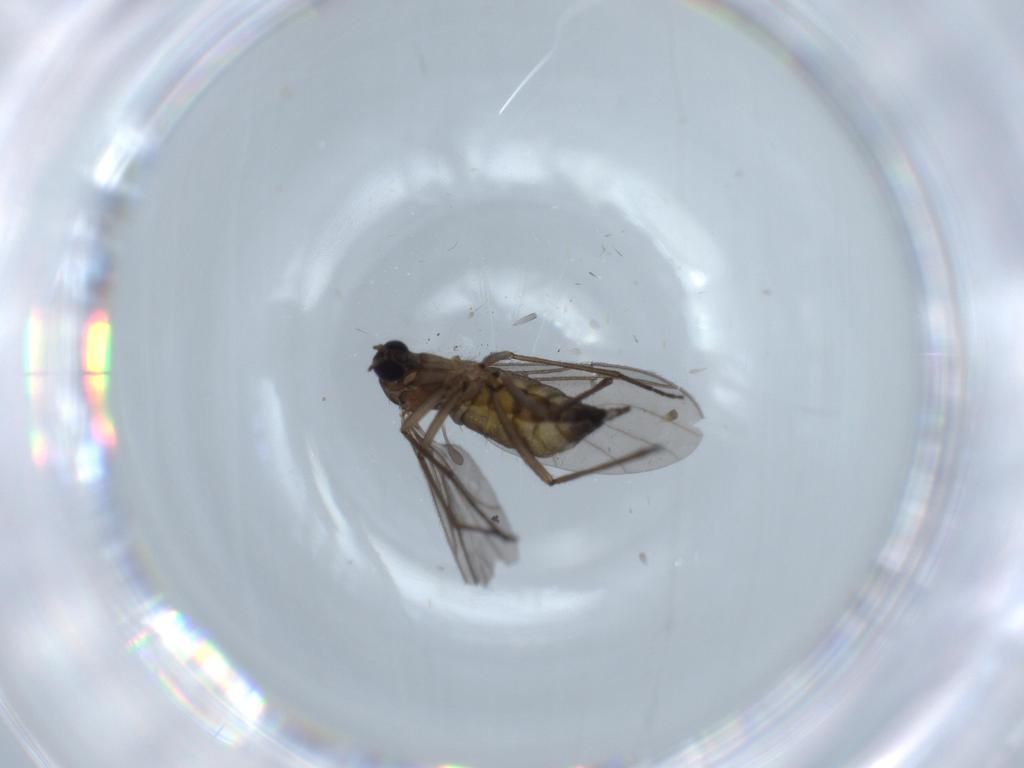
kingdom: Animalia
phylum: Arthropoda
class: Insecta
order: Diptera
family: Sciaridae
